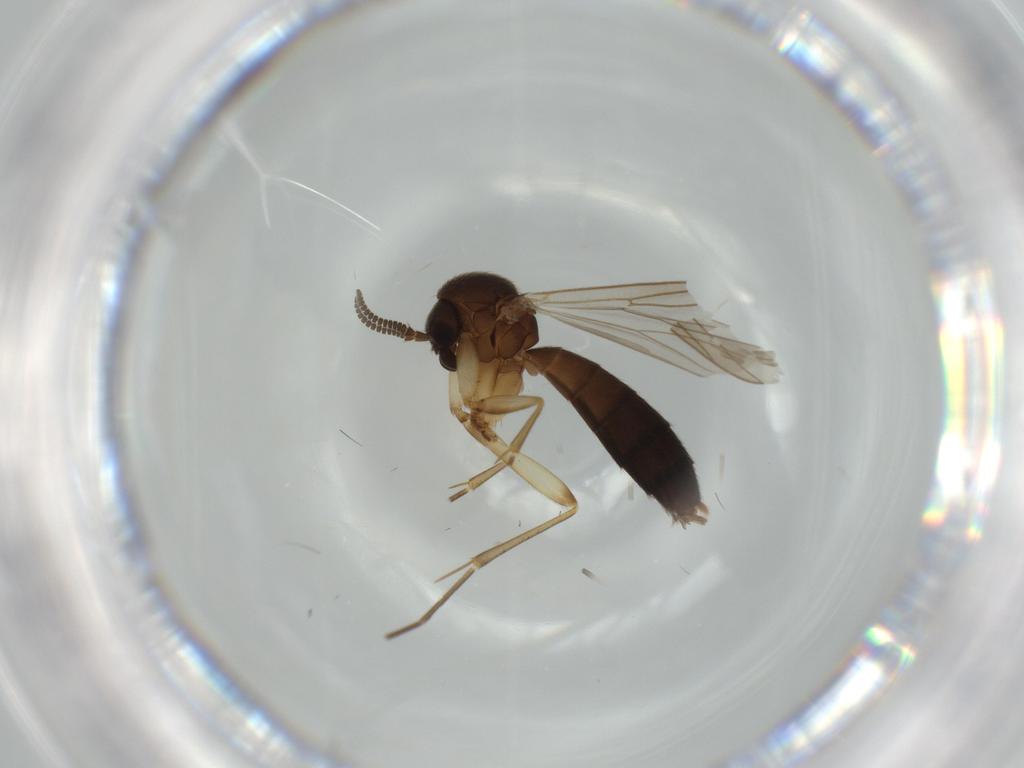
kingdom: Animalia
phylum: Arthropoda
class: Insecta
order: Diptera
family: Mycetophilidae
